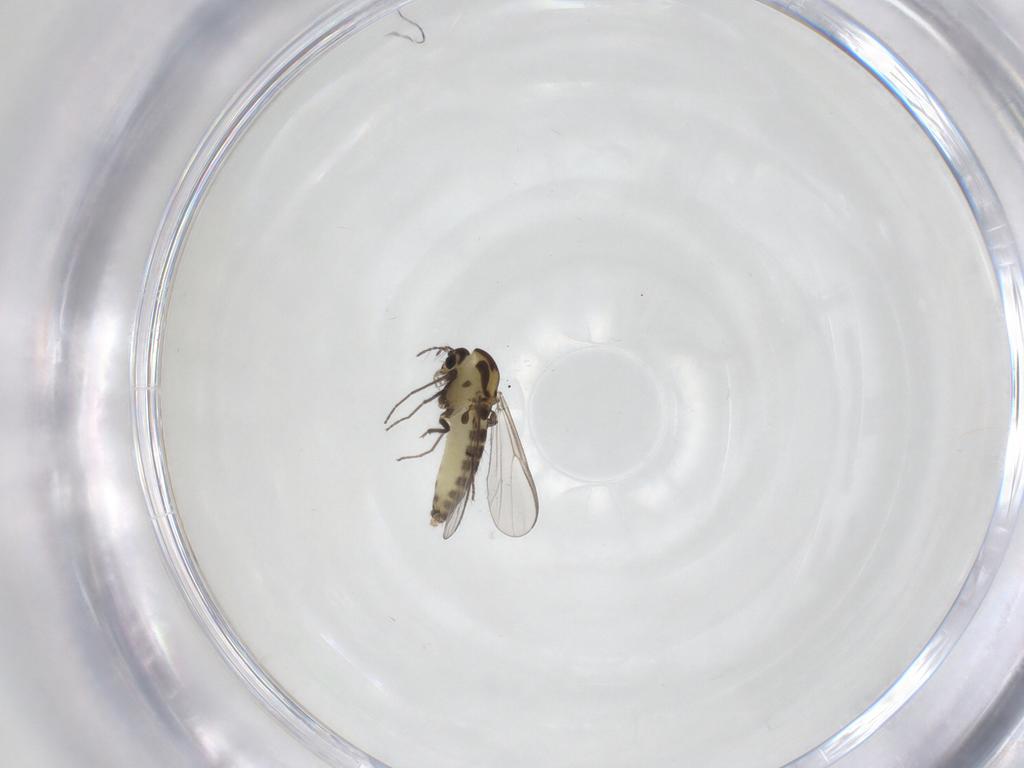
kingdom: Animalia
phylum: Arthropoda
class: Insecta
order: Diptera
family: Chironomidae
